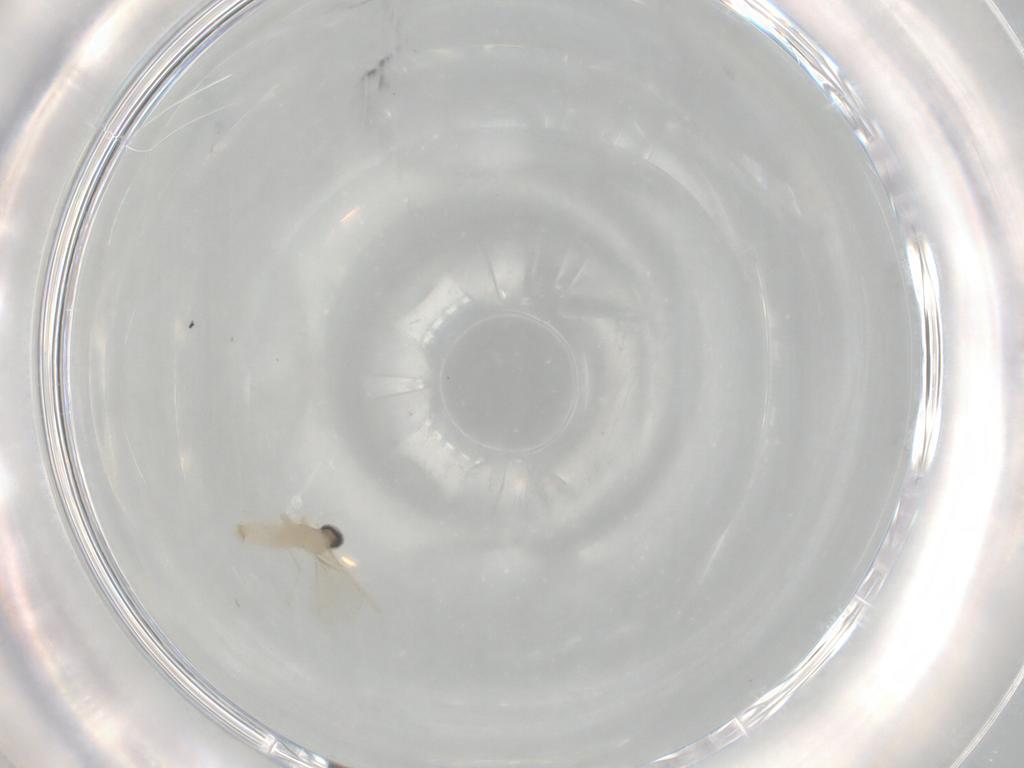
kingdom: Animalia
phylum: Arthropoda
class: Insecta
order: Diptera
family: Cecidomyiidae
